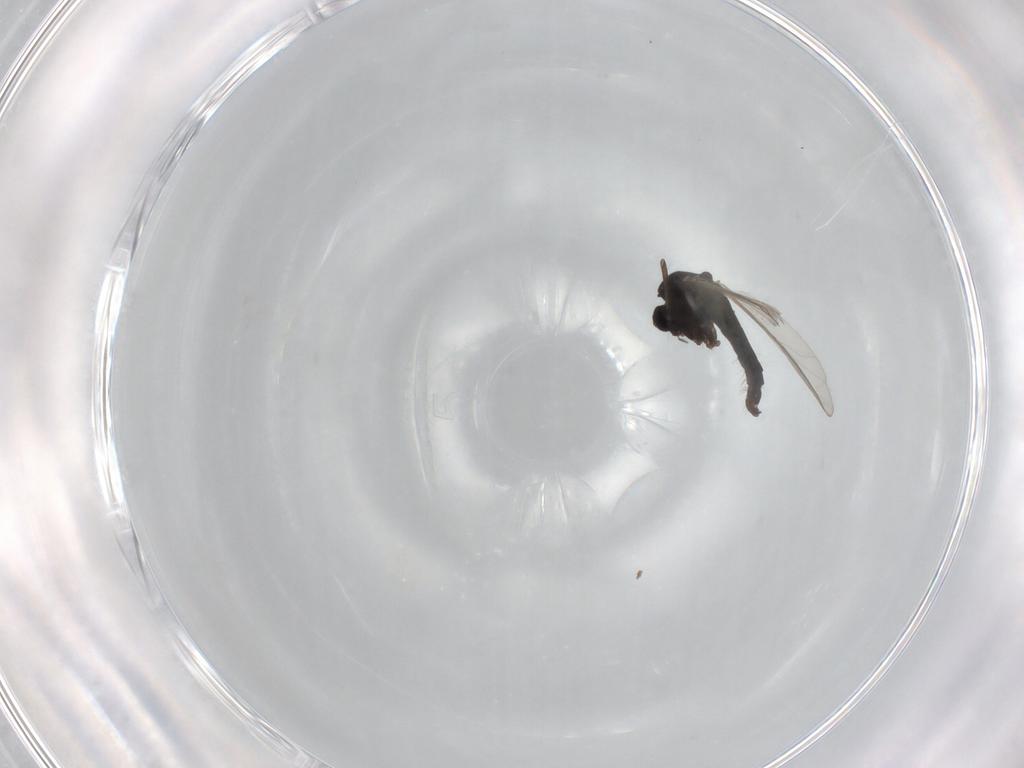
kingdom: Animalia
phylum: Arthropoda
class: Insecta
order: Diptera
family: Chironomidae
